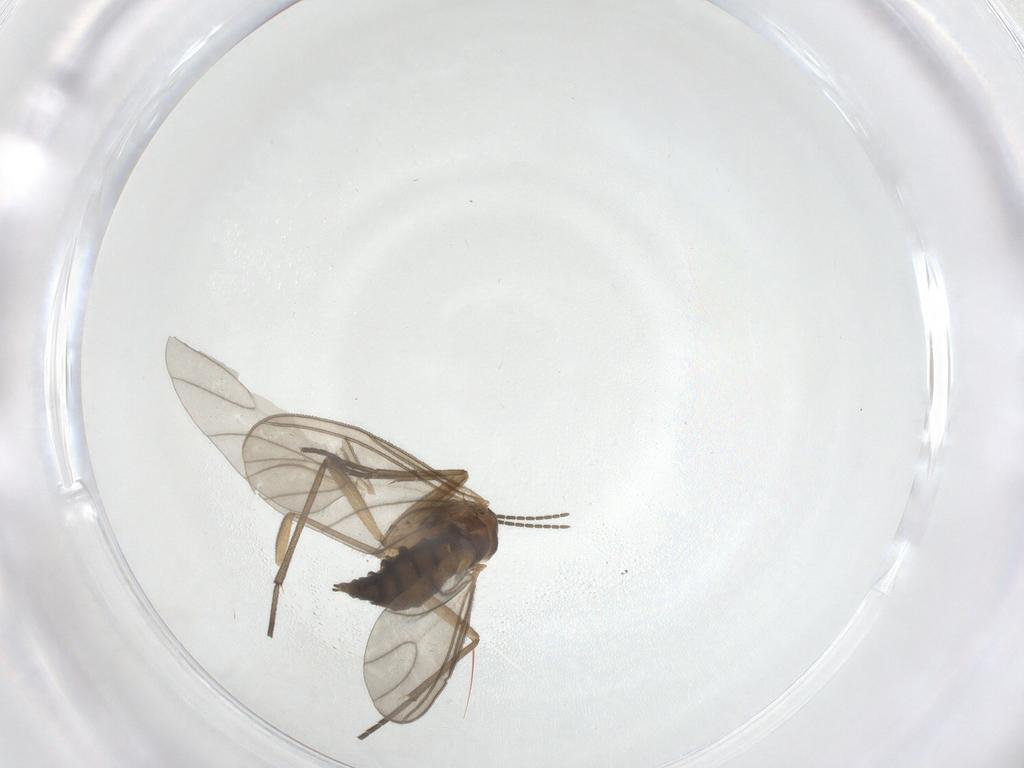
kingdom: Animalia
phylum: Arthropoda
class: Insecta
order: Diptera
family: Sciaridae
